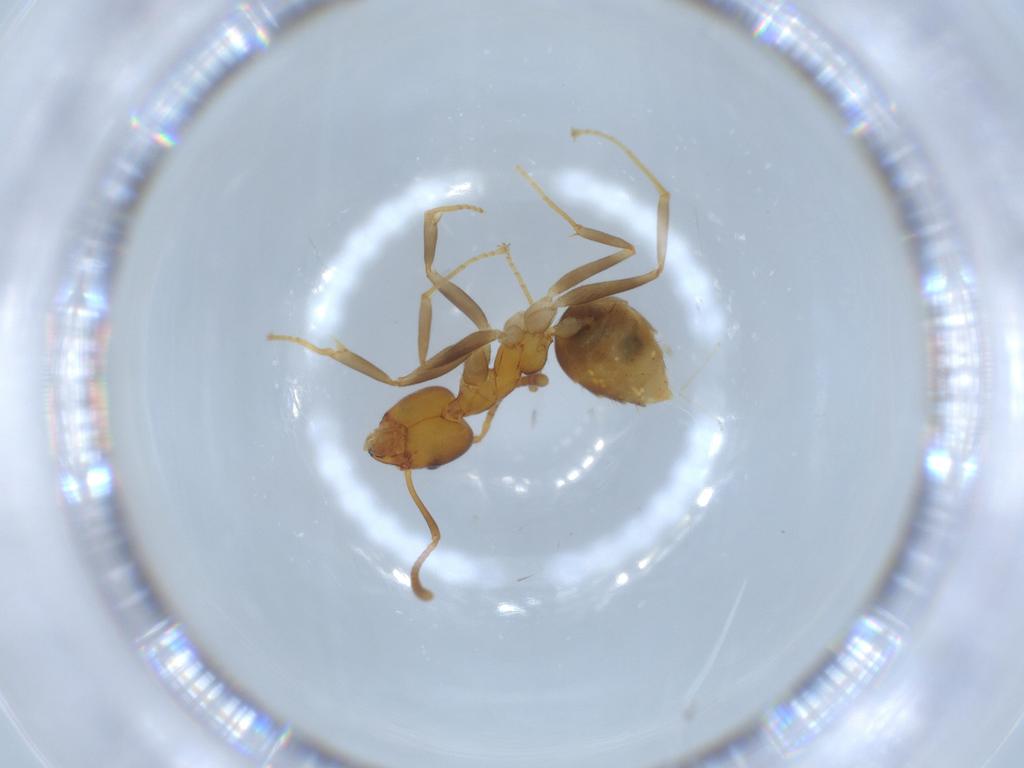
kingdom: Animalia
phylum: Arthropoda
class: Insecta
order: Hymenoptera
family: Formicidae
